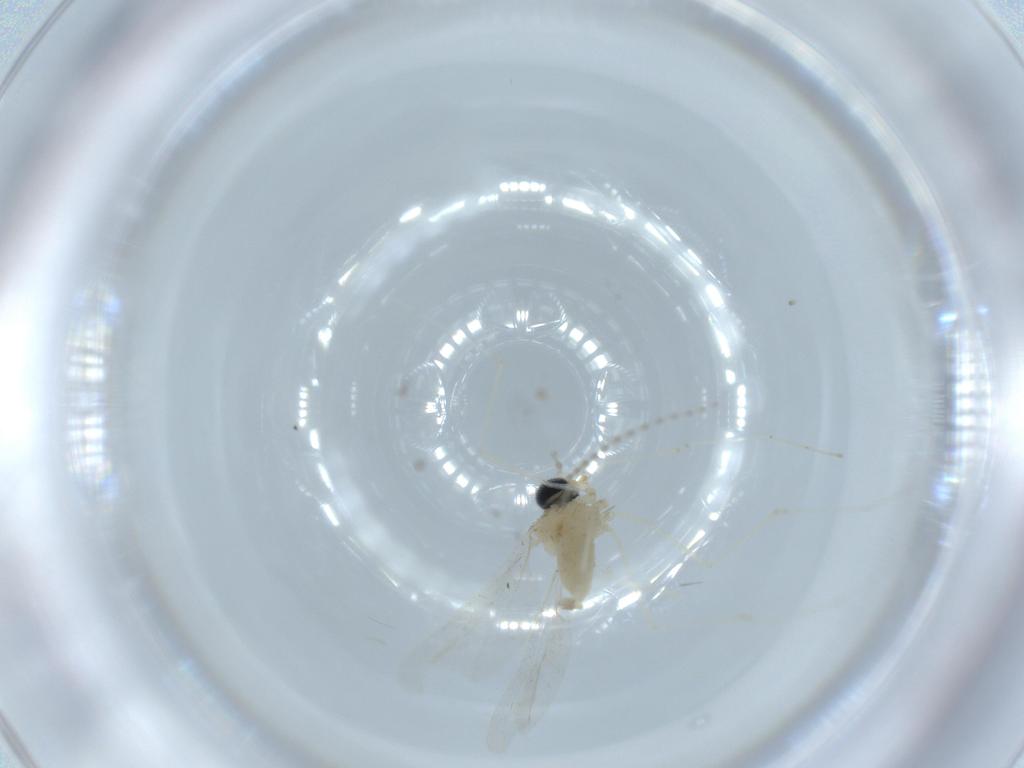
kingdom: Animalia
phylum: Arthropoda
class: Insecta
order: Diptera
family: Cecidomyiidae
